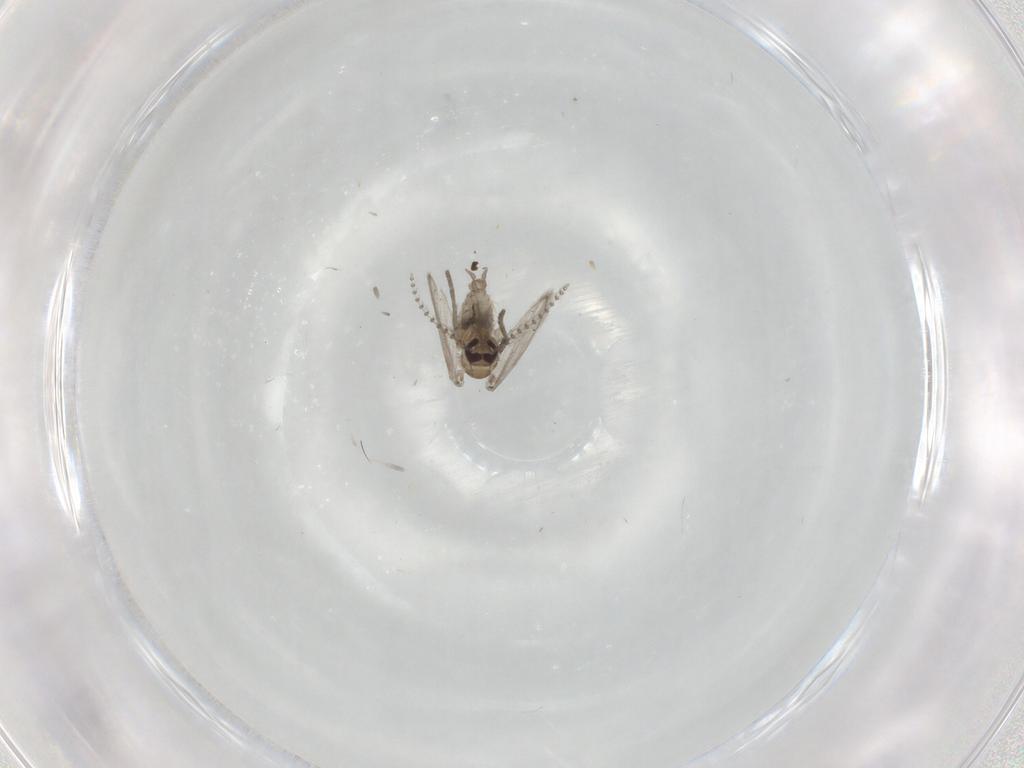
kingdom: Animalia
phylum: Arthropoda
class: Insecta
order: Diptera
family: Psychodidae
